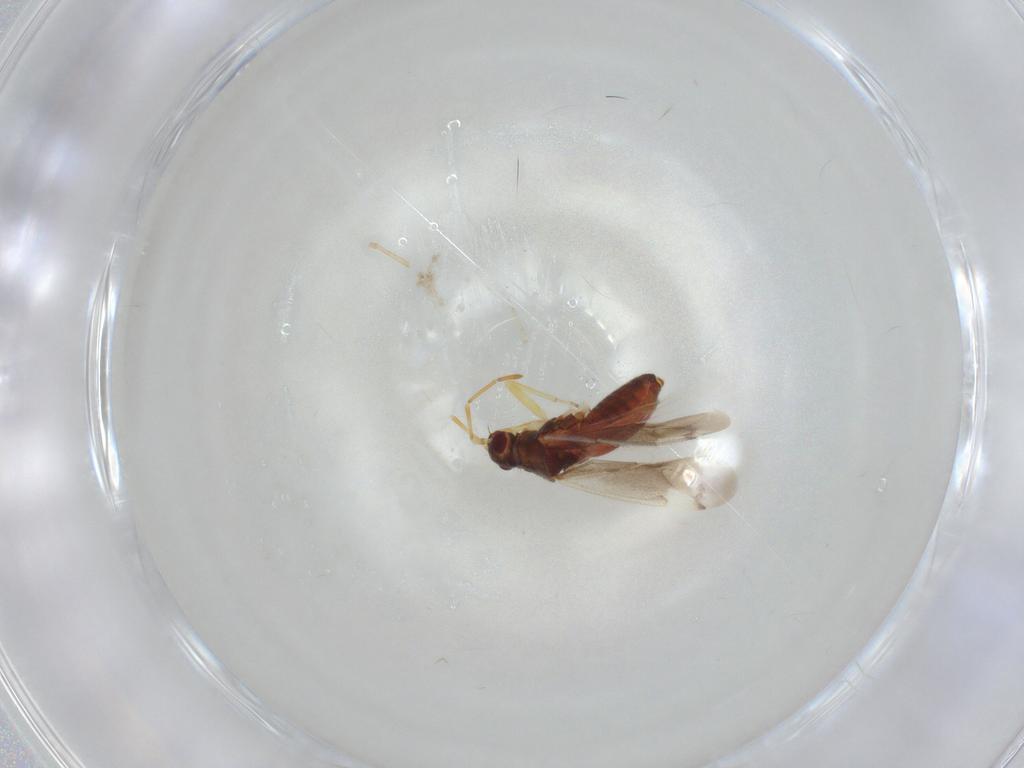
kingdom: Animalia
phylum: Arthropoda
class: Insecta
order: Hemiptera
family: Miridae
